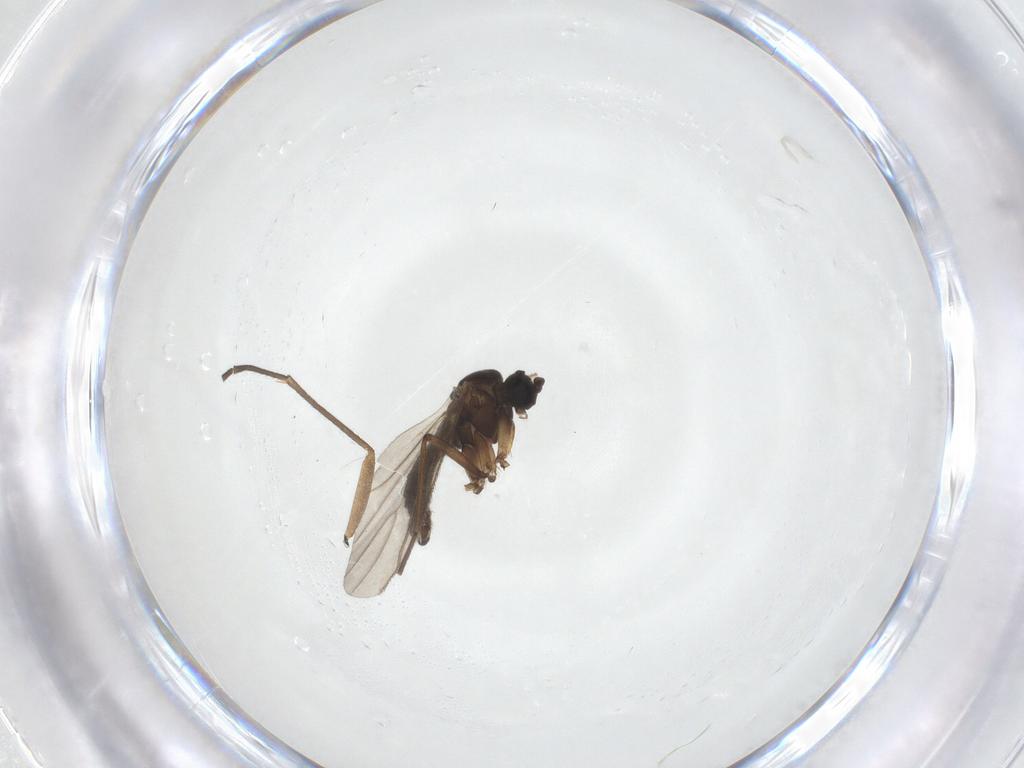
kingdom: Animalia
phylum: Arthropoda
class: Insecta
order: Diptera
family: Sciaridae
